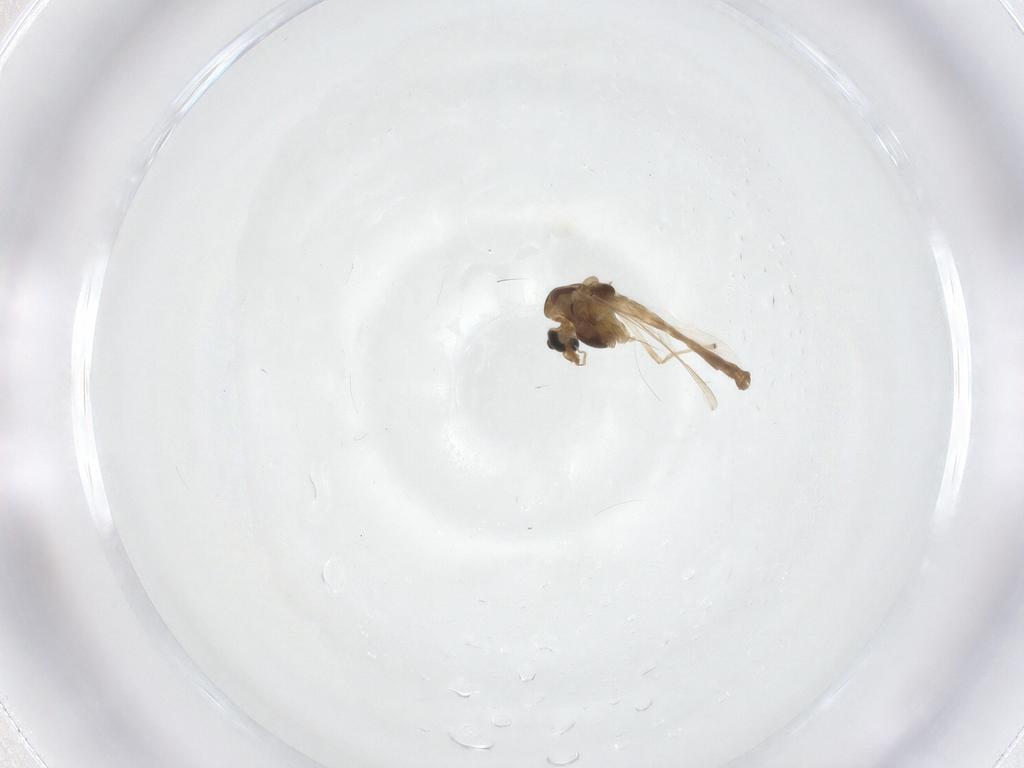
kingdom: Animalia
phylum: Arthropoda
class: Insecta
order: Diptera
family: Chironomidae
